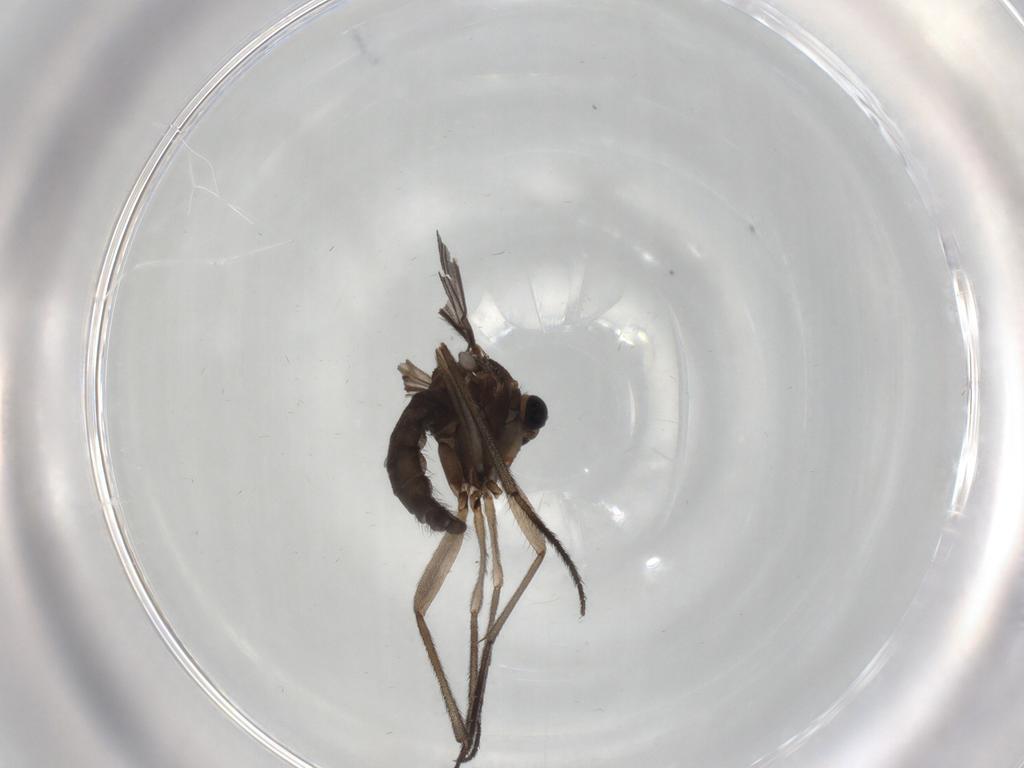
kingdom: Animalia
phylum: Arthropoda
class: Insecta
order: Diptera
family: Sciaridae
